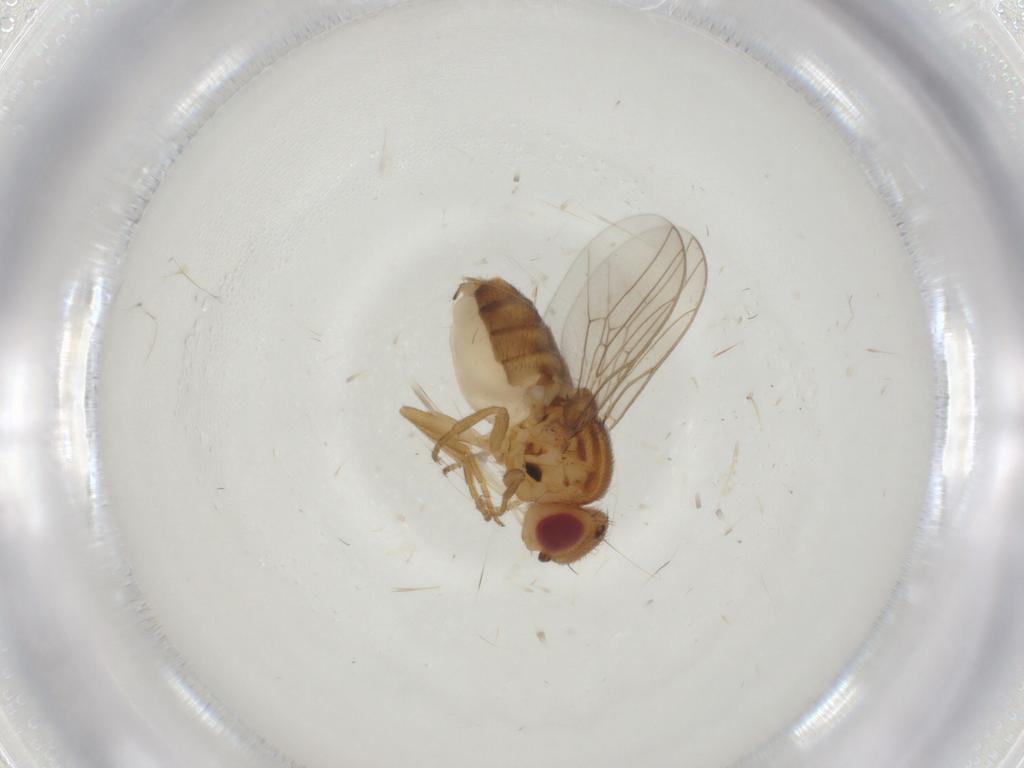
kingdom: Animalia
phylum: Arthropoda
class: Insecta
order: Diptera
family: Chloropidae
